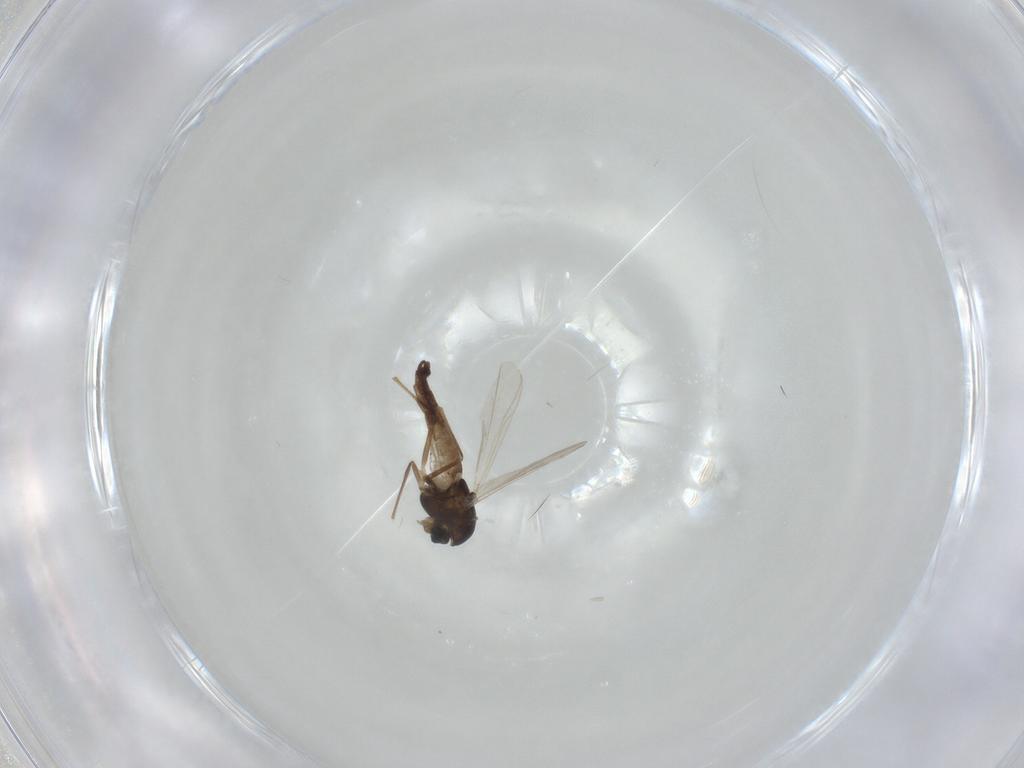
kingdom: Animalia
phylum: Arthropoda
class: Insecta
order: Diptera
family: Chironomidae
